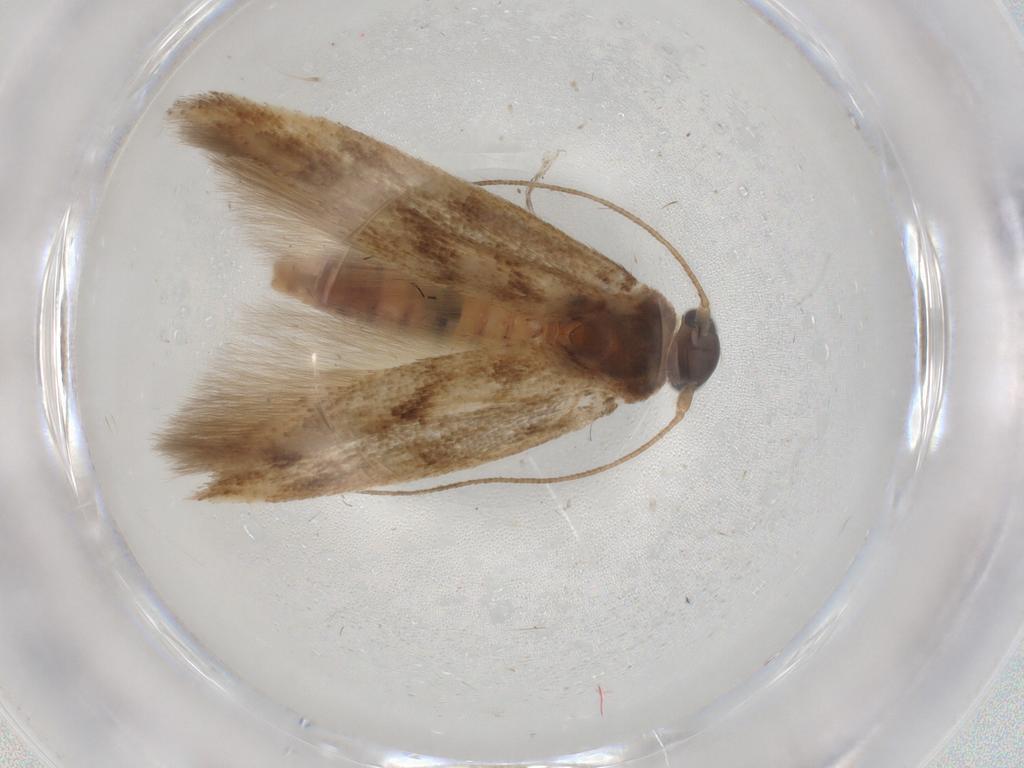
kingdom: Animalia
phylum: Arthropoda
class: Insecta
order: Lepidoptera
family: Scythrididae
